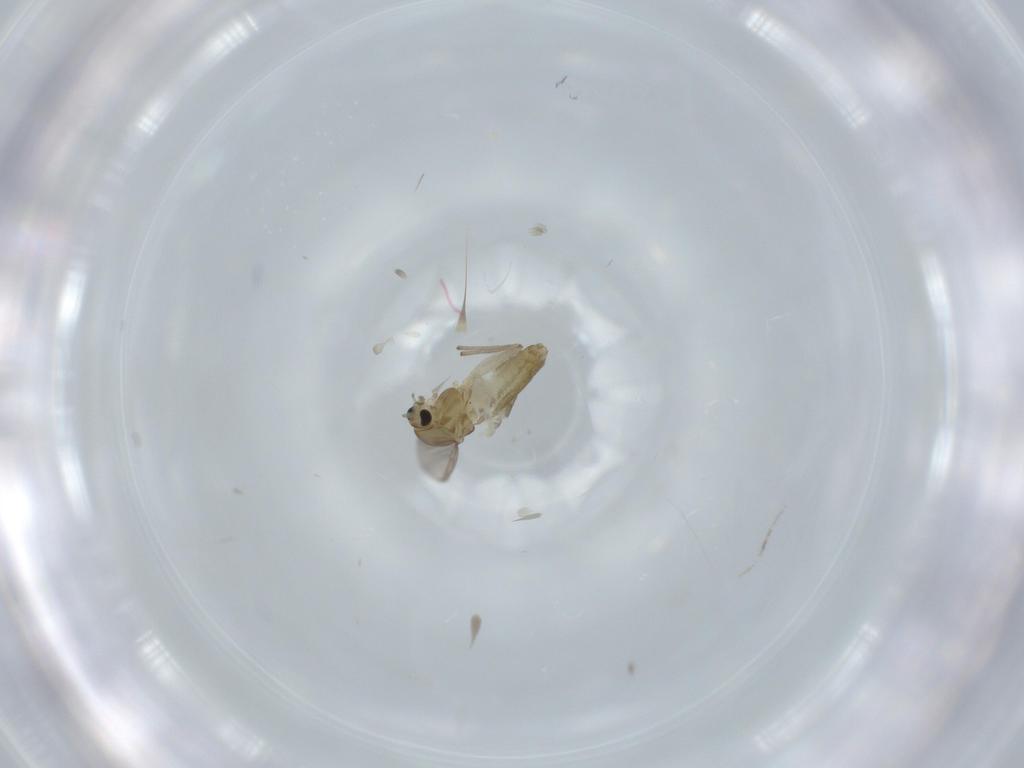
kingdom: Animalia
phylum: Arthropoda
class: Insecta
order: Diptera
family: Chironomidae
